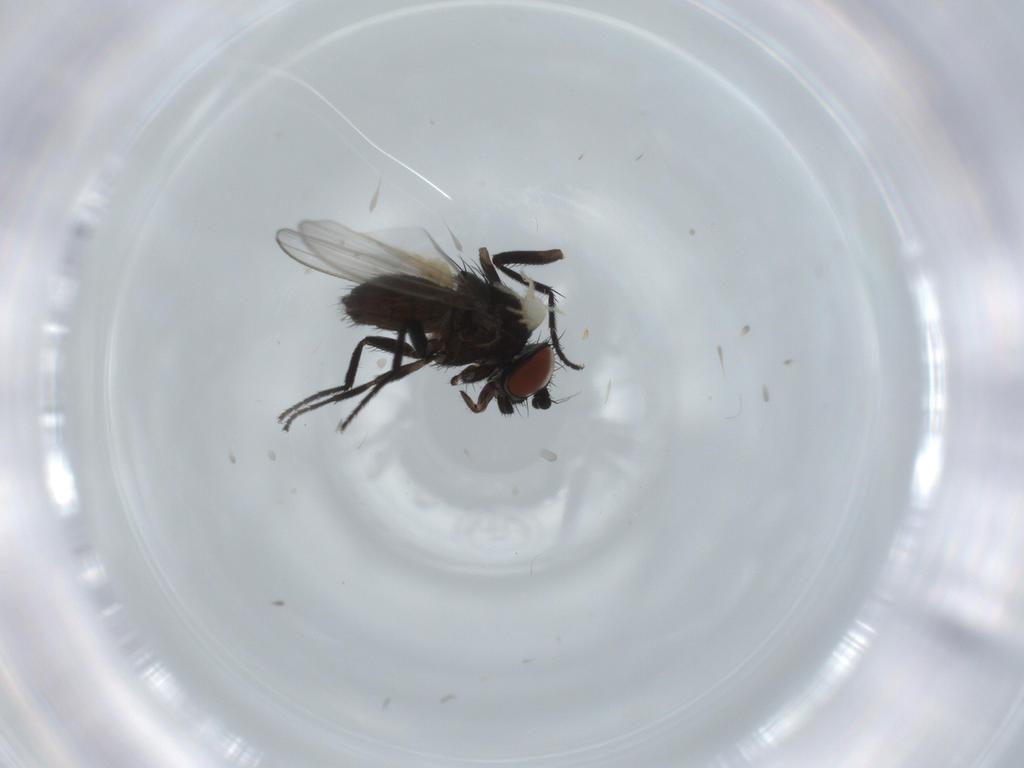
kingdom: Animalia
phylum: Arthropoda
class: Insecta
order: Diptera
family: Milichiidae
